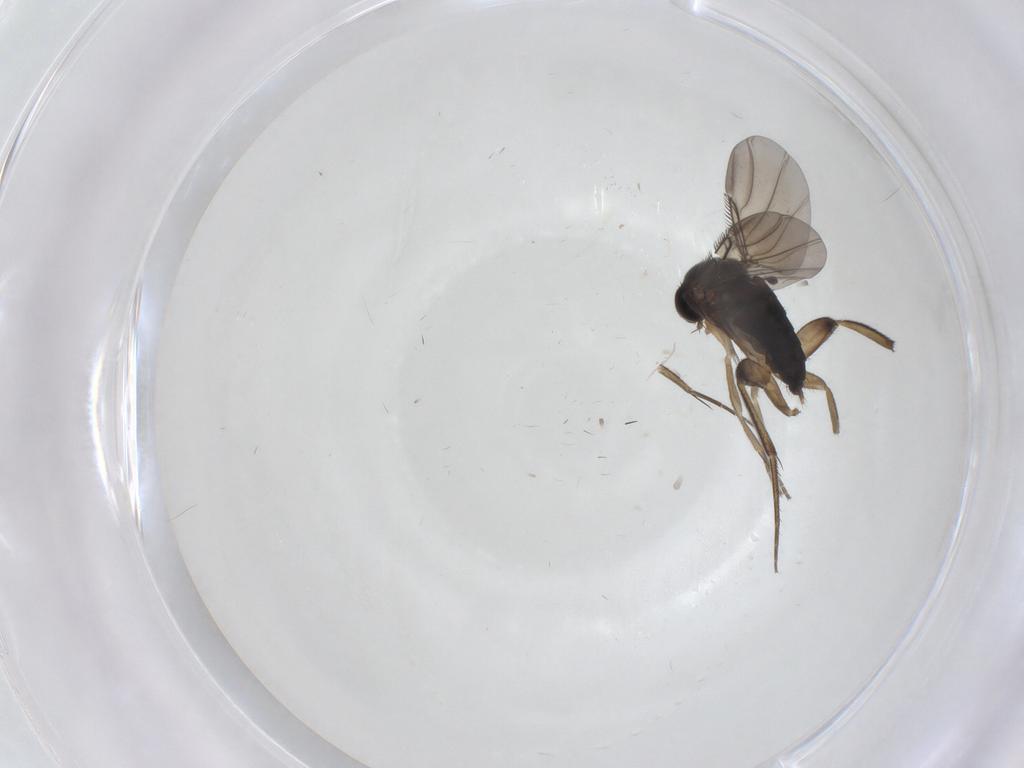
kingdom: Animalia
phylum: Arthropoda
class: Insecta
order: Diptera
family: Phoridae
